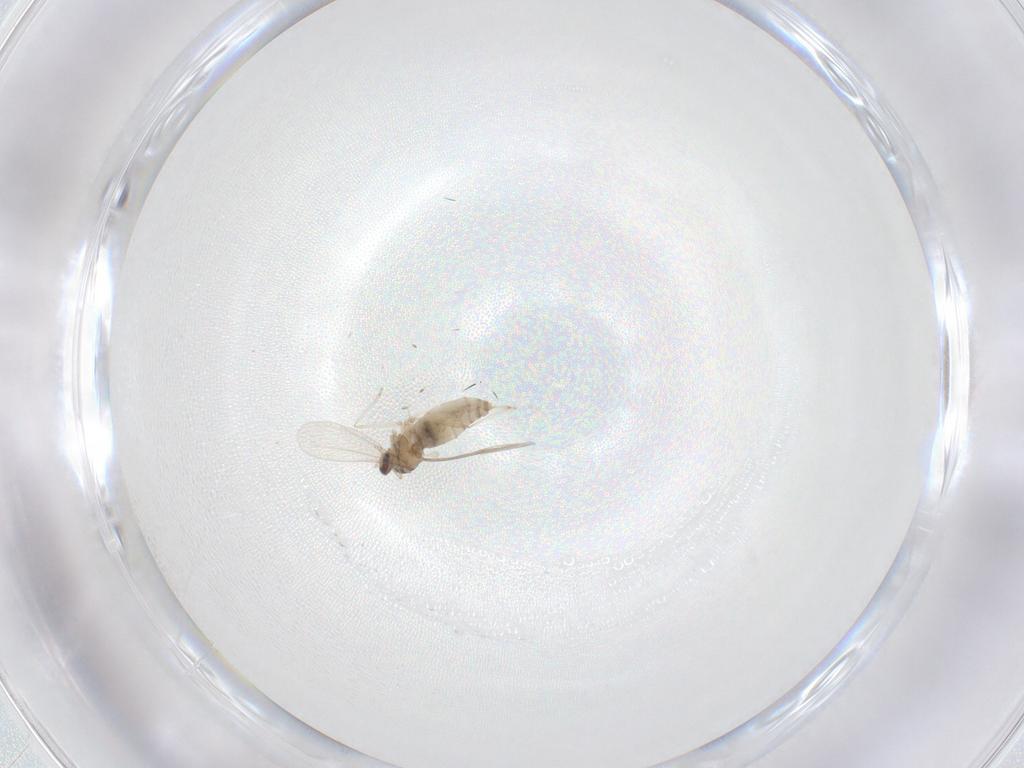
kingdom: Animalia
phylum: Arthropoda
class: Insecta
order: Diptera
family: Cecidomyiidae
